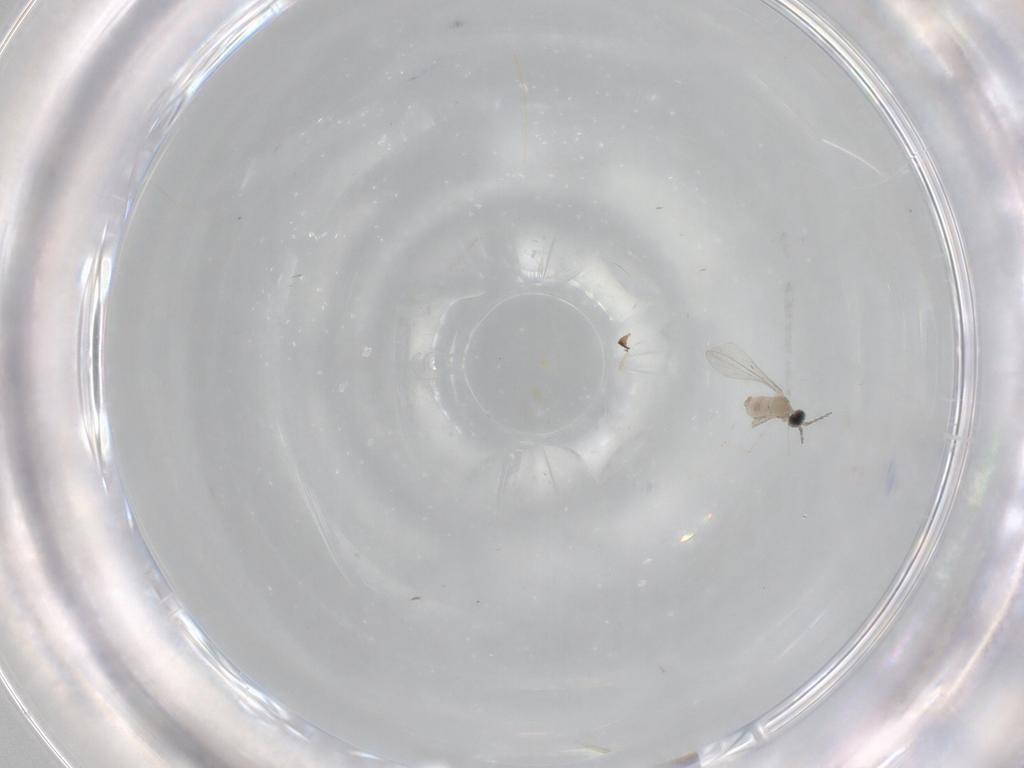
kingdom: Animalia
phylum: Arthropoda
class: Insecta
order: Diptera
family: Cecidomyiidae
